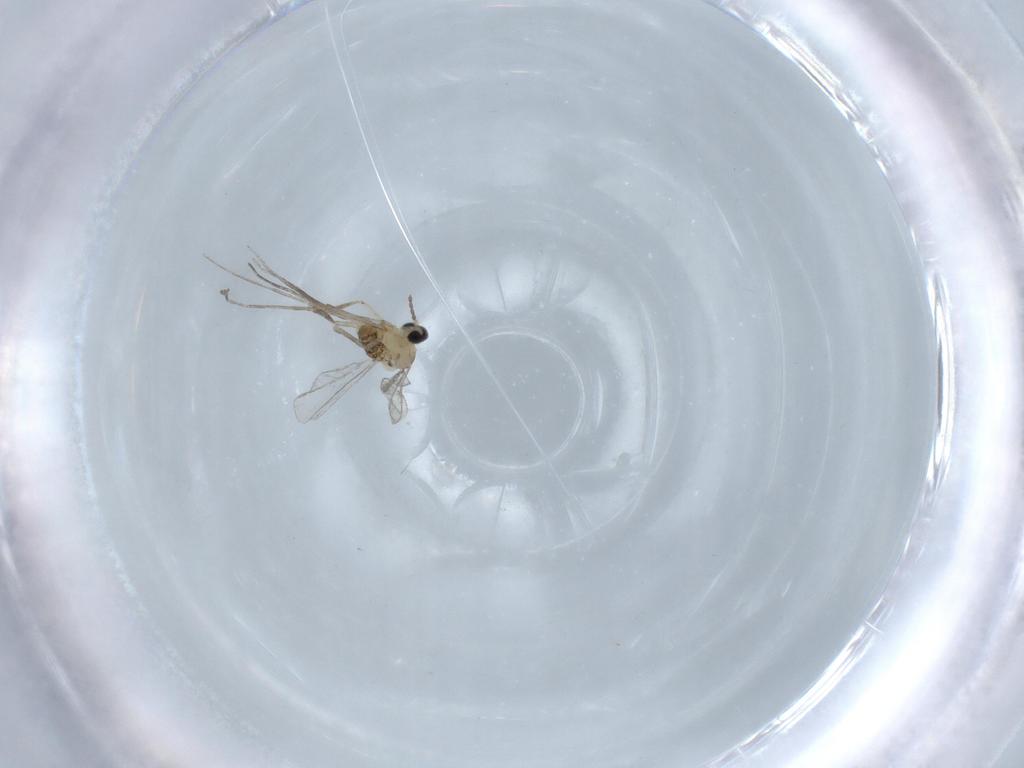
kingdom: Animalia
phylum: Arthropoda
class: Insecta
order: Diptera
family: Cecidomyiidae
